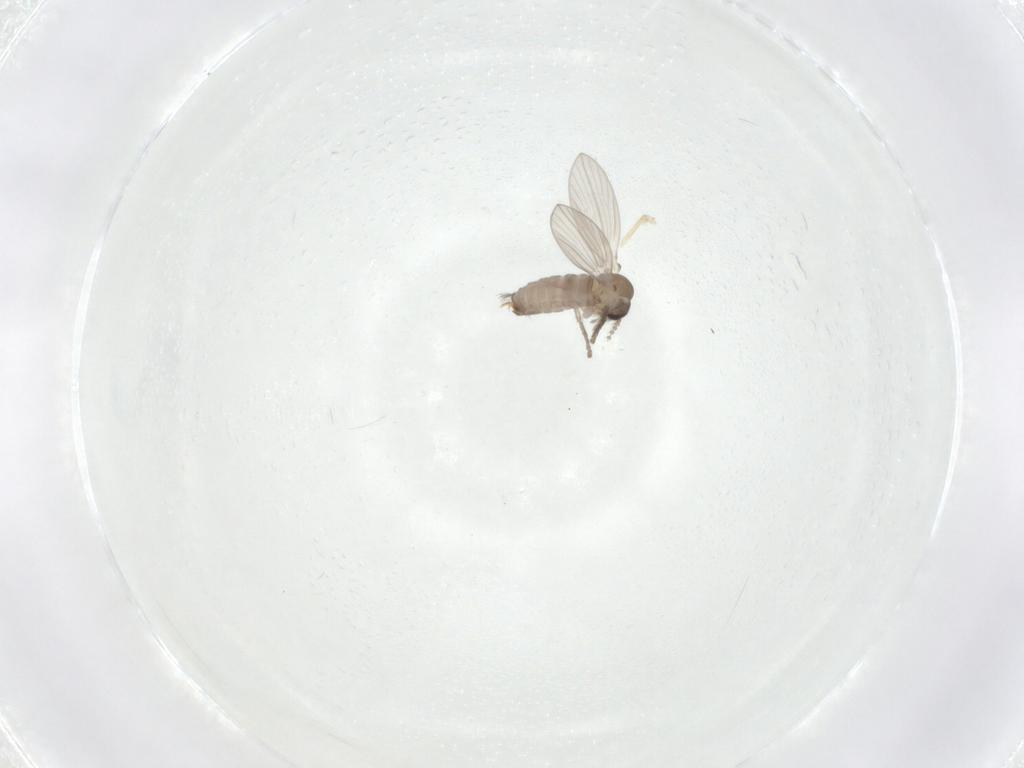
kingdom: Animalia
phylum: Arthropoda
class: Insecta
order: Diptera
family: Psychodidae
